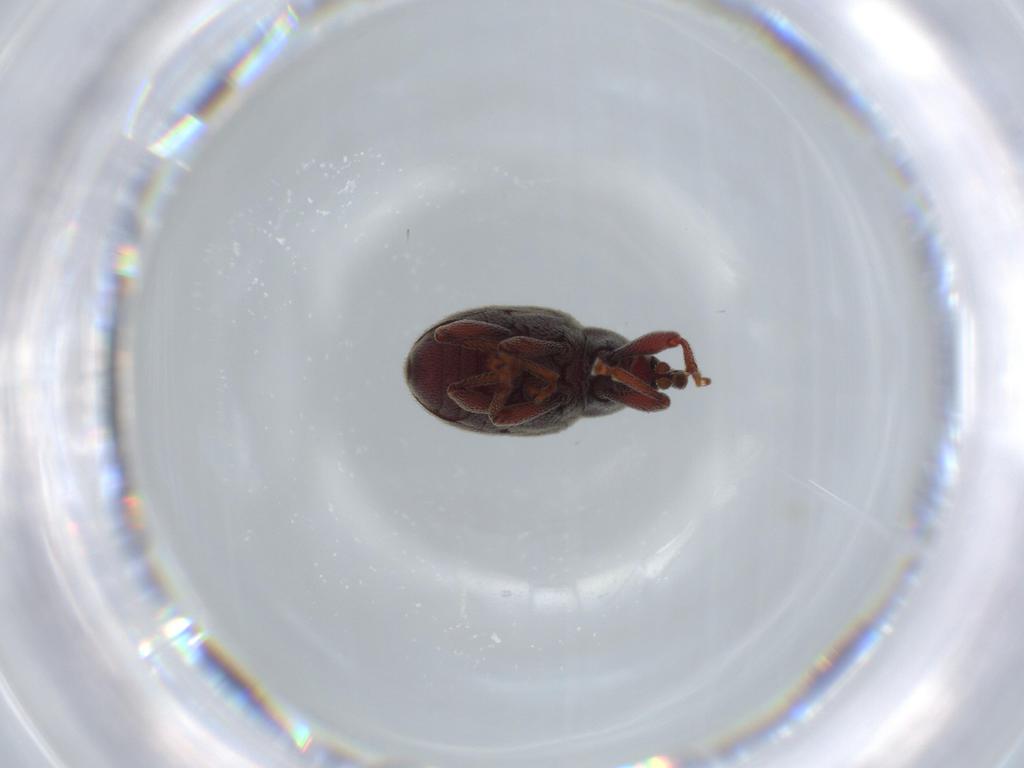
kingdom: Animalia
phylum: Arthropoda
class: Insecta
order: Coleoptera
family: Curculionidae
